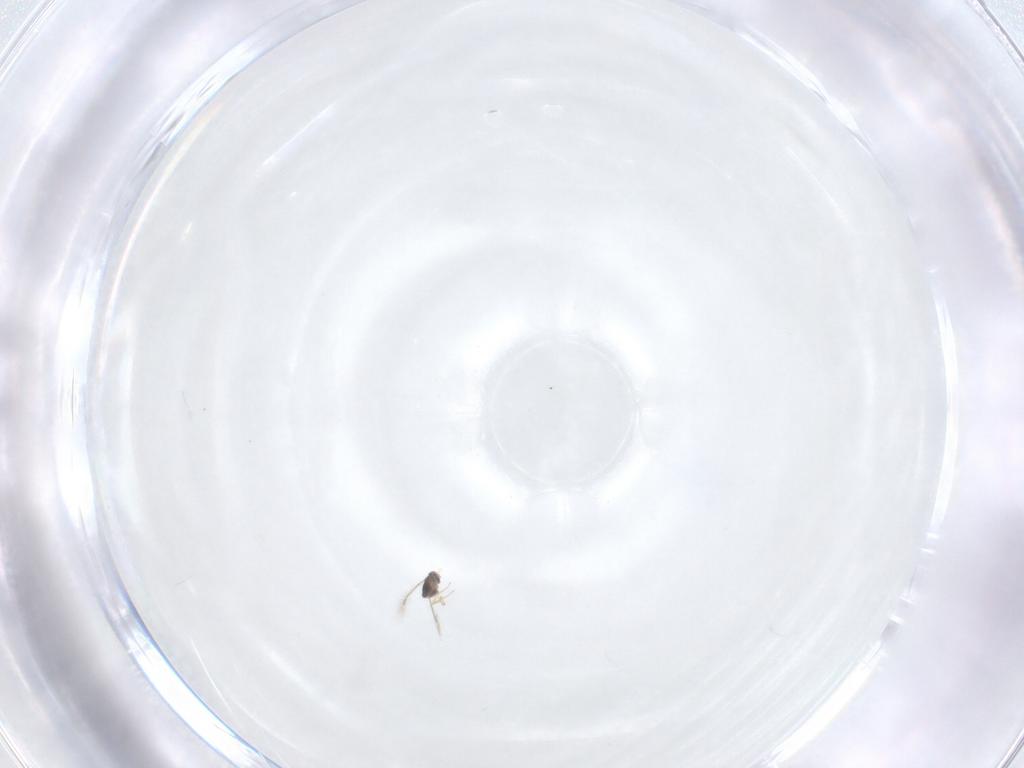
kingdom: Animalia
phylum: Arthropoda
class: Insecta
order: Hymenoptera
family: Mymaridae
